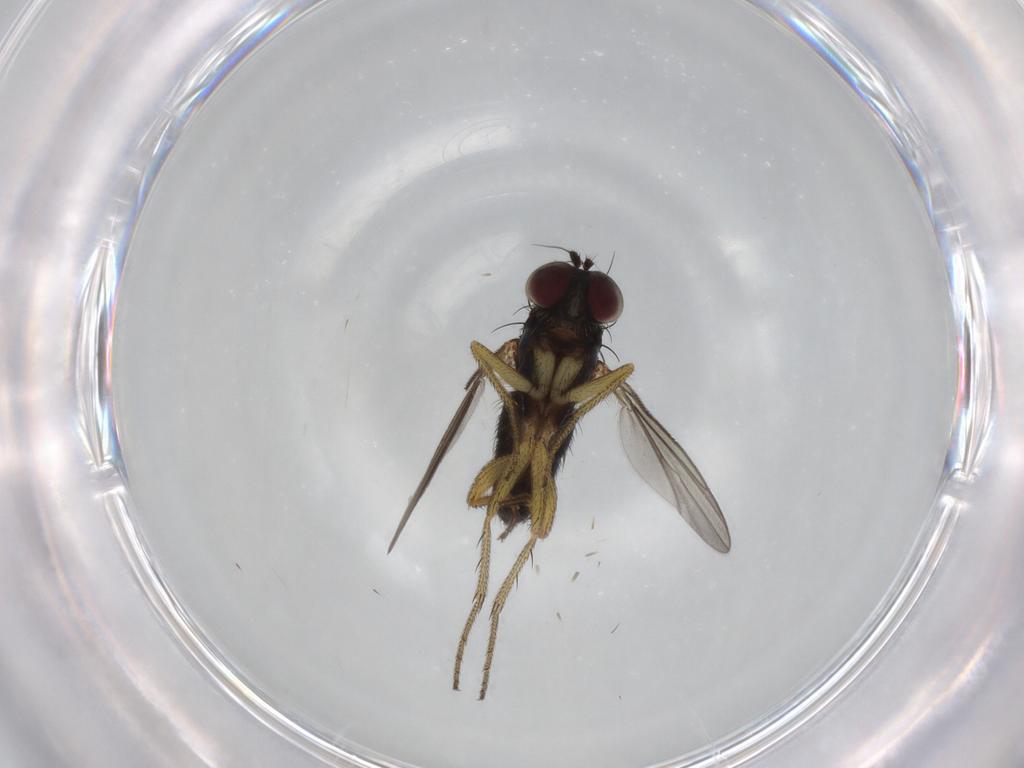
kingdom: Animalia
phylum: Arthropoda
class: Insecta
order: Diptera
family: Dolichopodidae
